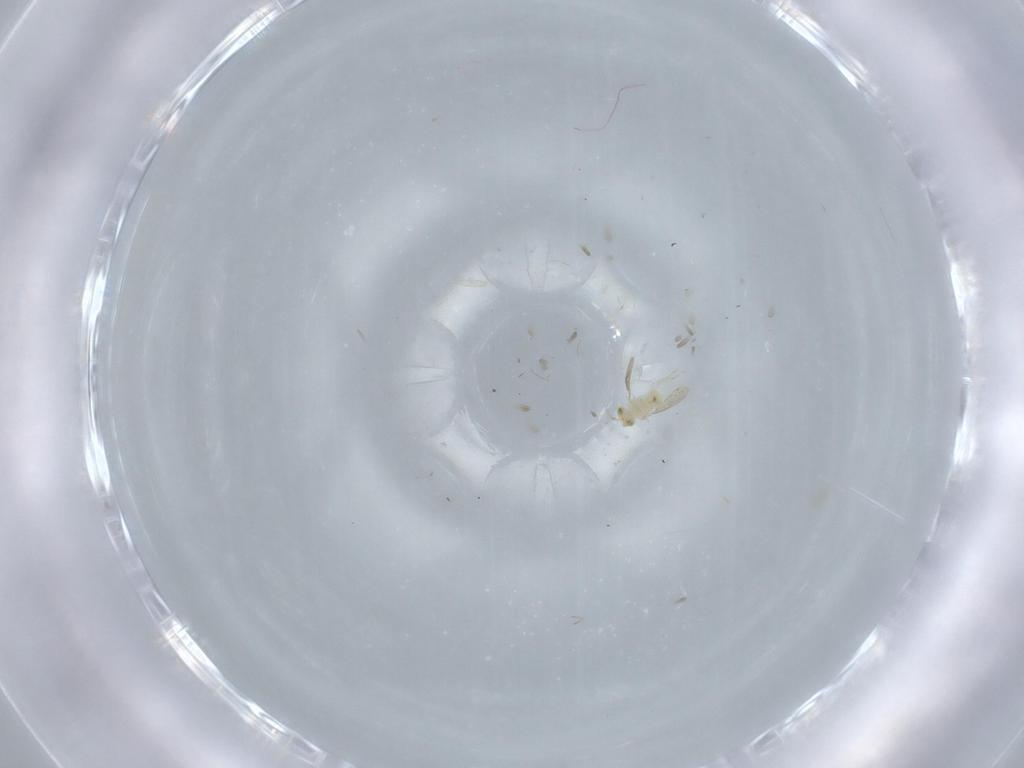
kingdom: Animalia
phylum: Arthropoda
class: Insecta
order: Hymenoptera
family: Aphelinidae
